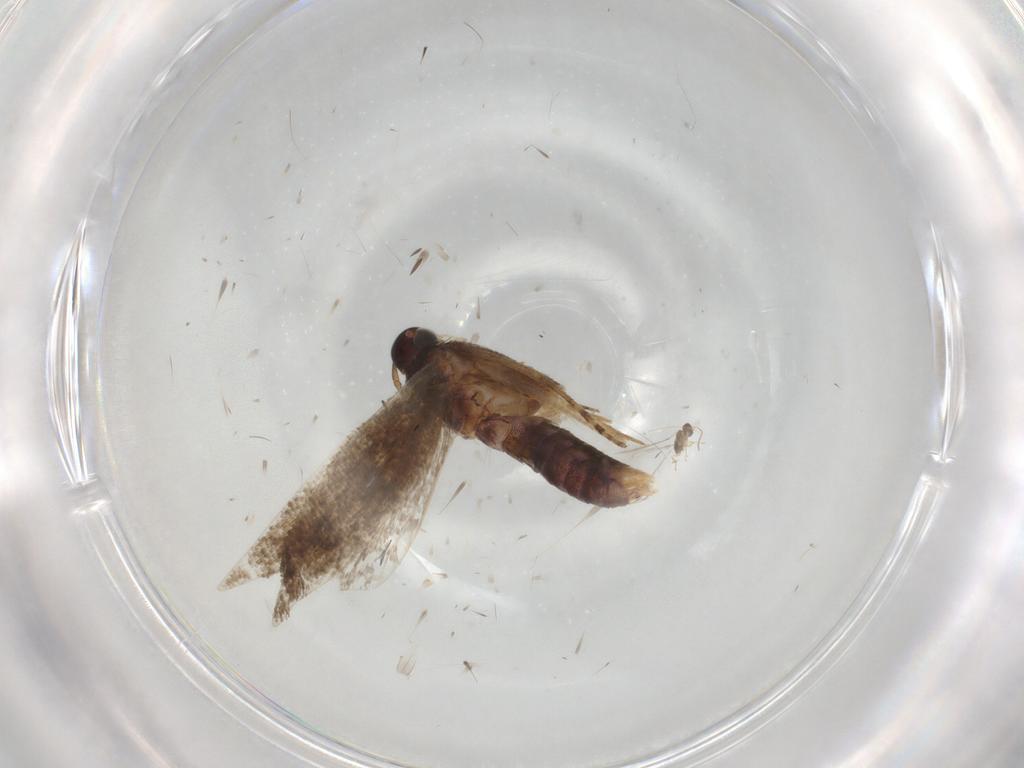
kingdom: Animalia
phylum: Arthropoda
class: Insecta
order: Lepidoptera
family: Gelechiidae
